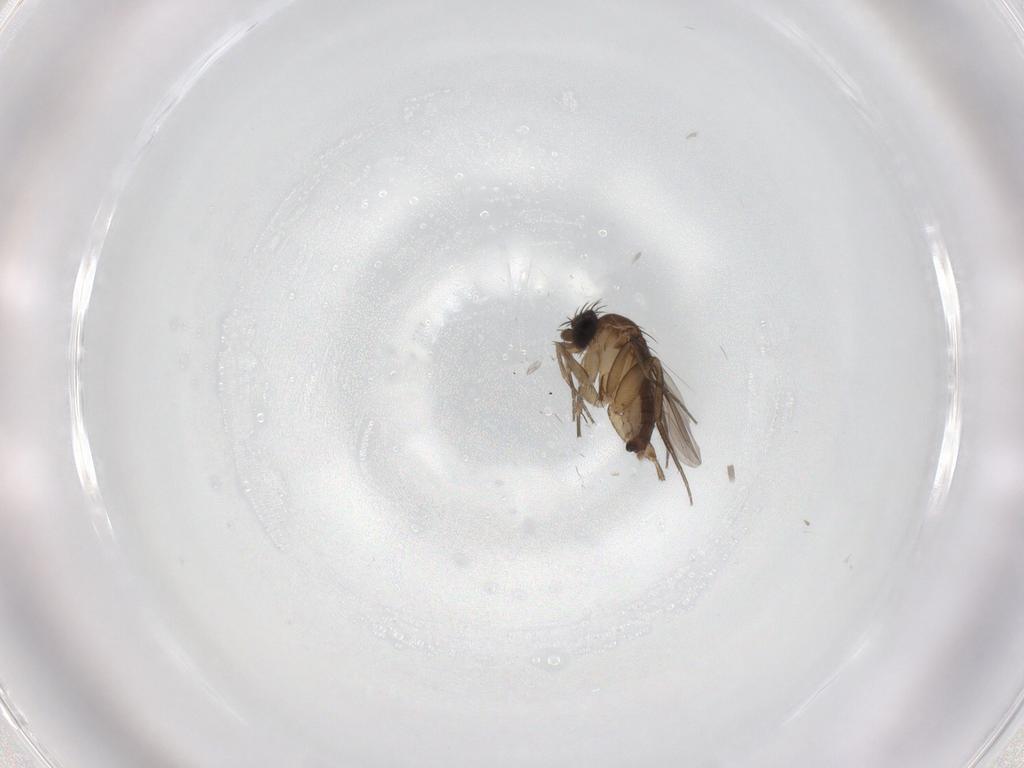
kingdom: Animalia
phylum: Arthropoda
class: Insecta
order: Diptera
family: Phoridae
